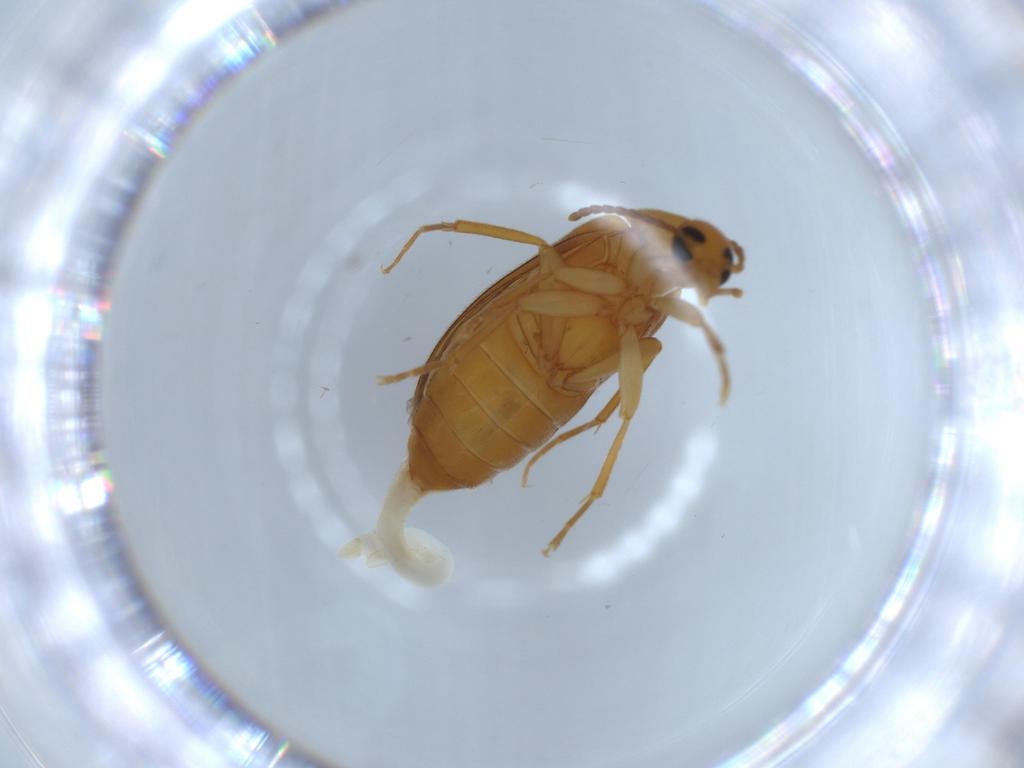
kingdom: Animalia
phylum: Arthropoda
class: Insecta
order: Coleoptera
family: Scraptiidae
